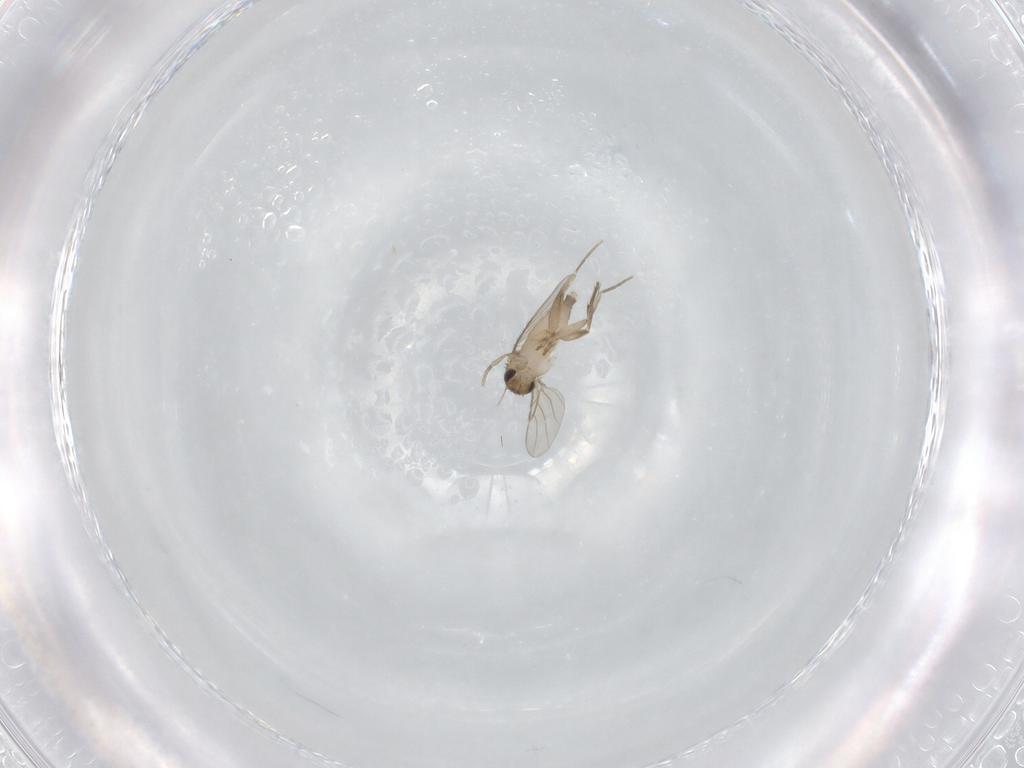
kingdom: Animalia
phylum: Arthropoda
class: Insecta
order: Diptera
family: Phoridae
